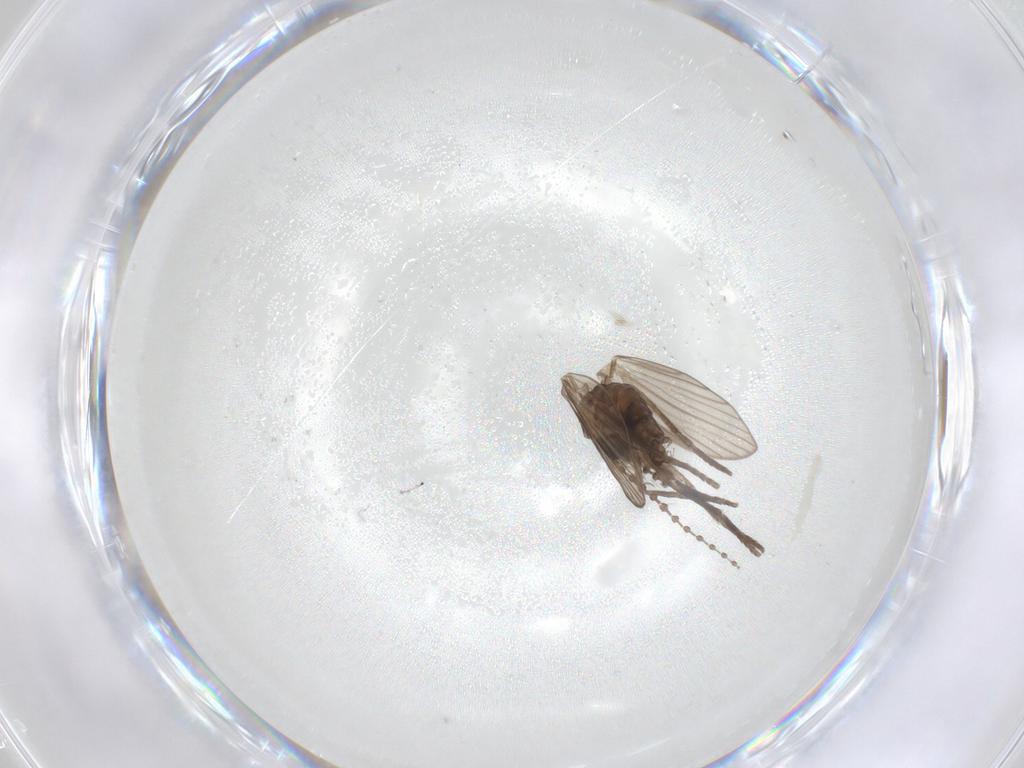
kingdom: Animalia
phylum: Arthropoda
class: Insecta
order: Diptera
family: Psychodidae
